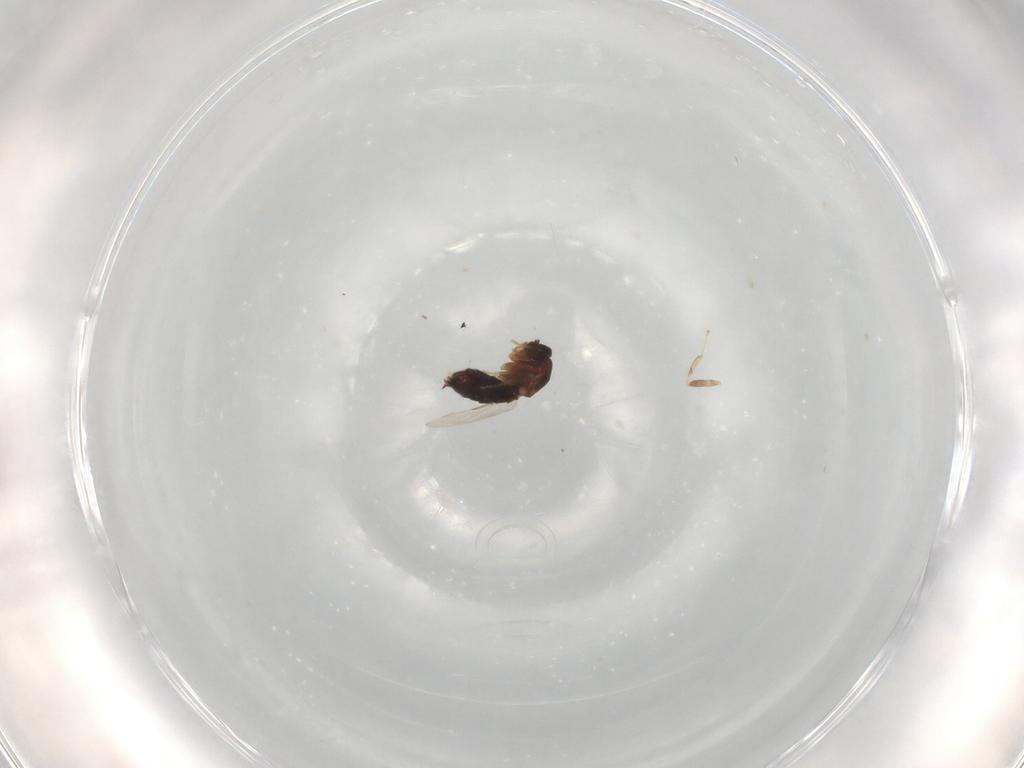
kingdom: Animalia
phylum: Arthropoda
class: Insecta
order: Diptera
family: Scatopsidae
